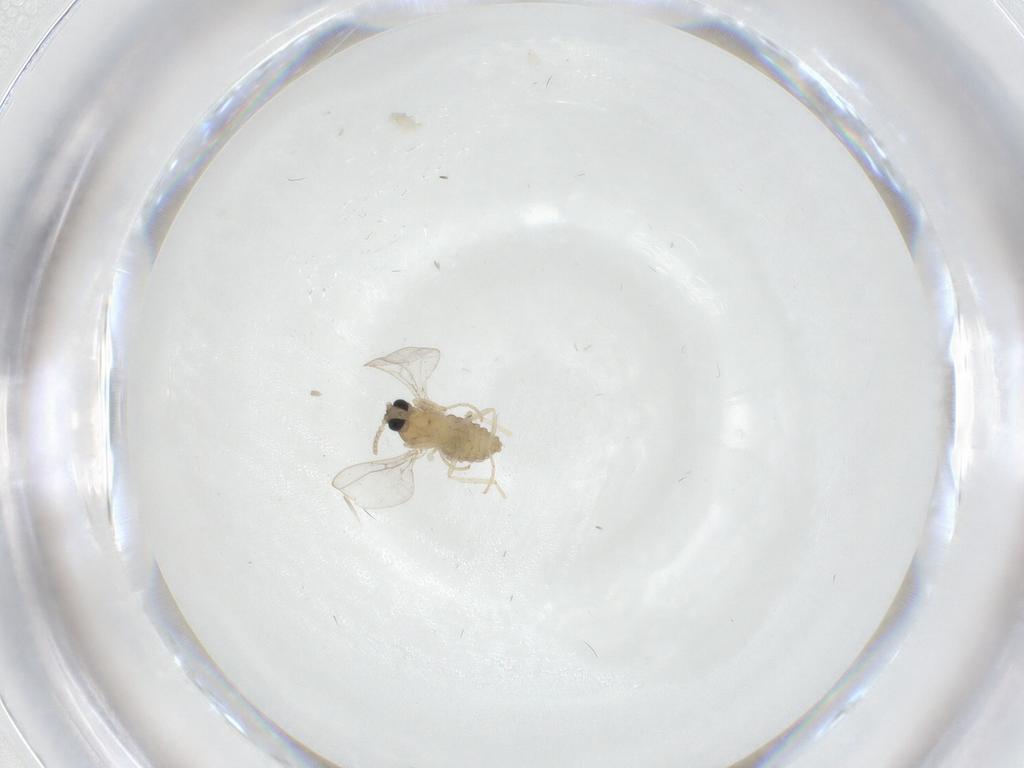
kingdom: Animalia
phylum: Arthropoda
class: Insecta
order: Diptera
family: Cecidomyiidae
